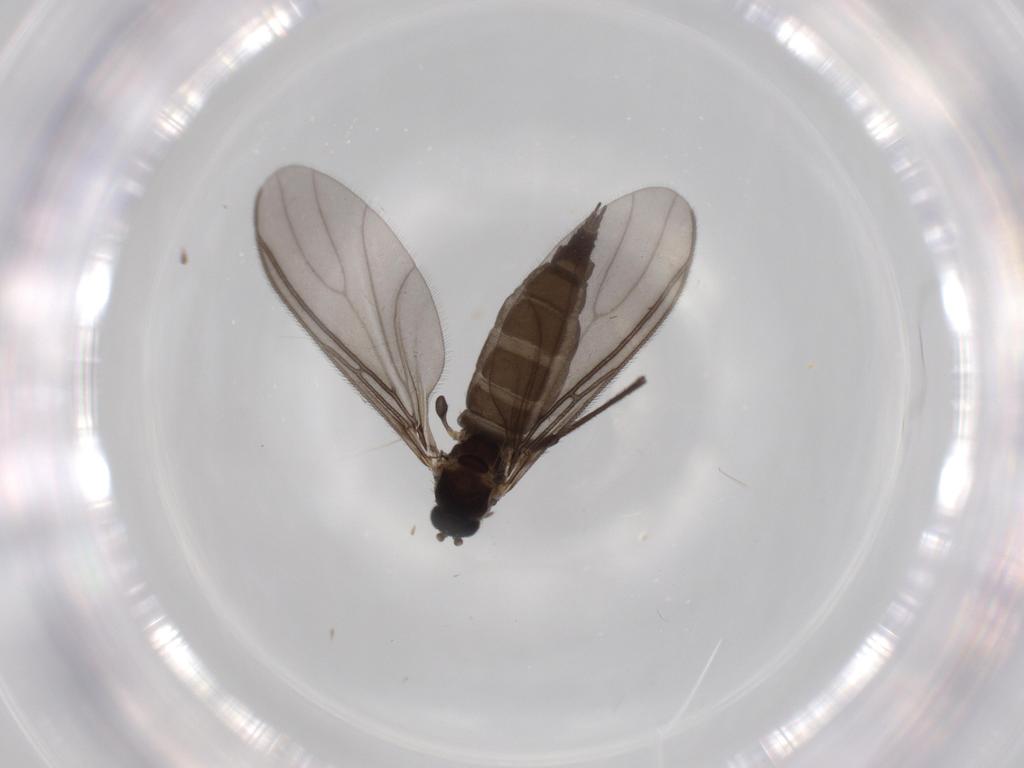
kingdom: Animalia
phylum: Arthropoda
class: Insecta
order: Diptera
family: Sciaridae
